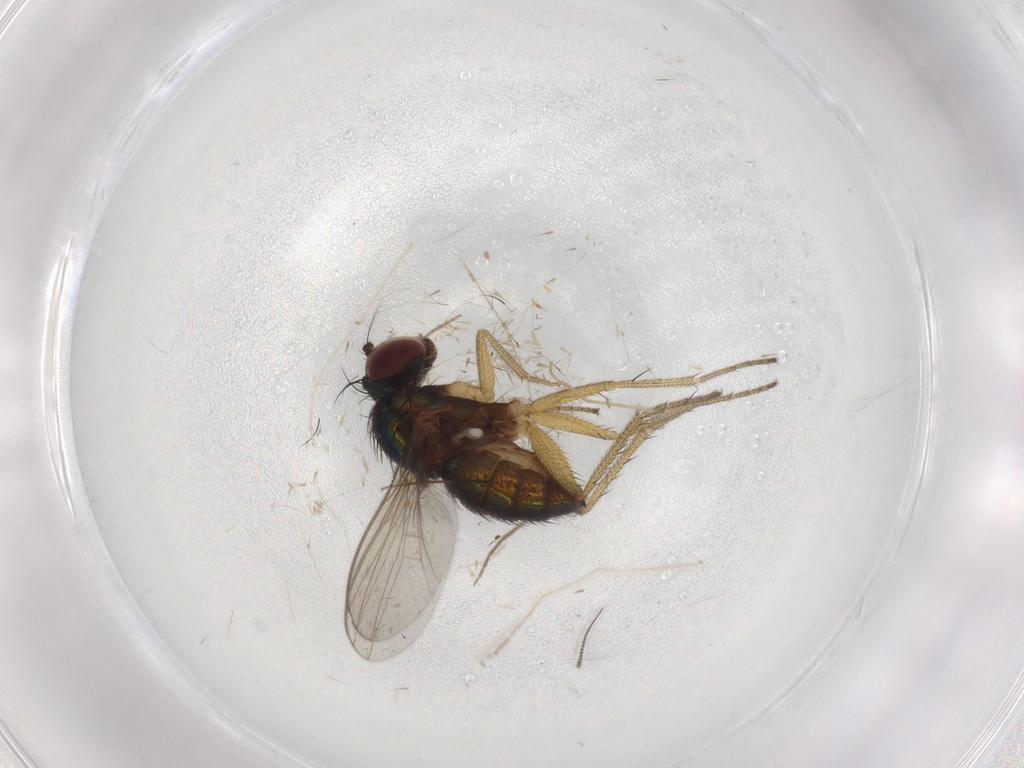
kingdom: Animalia
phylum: Arthropoda
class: Insecta
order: Diptera
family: Chironomidae
